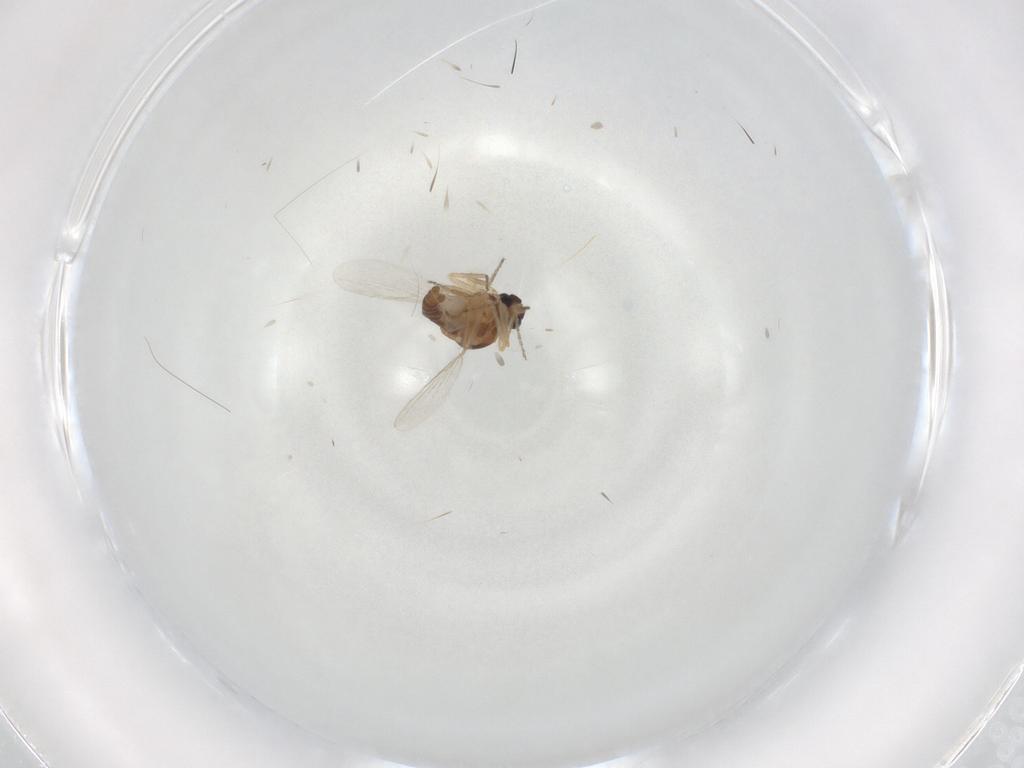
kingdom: Animalia
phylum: Arthropoda
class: Insecta
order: Diptera
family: Ceratopogonidae
